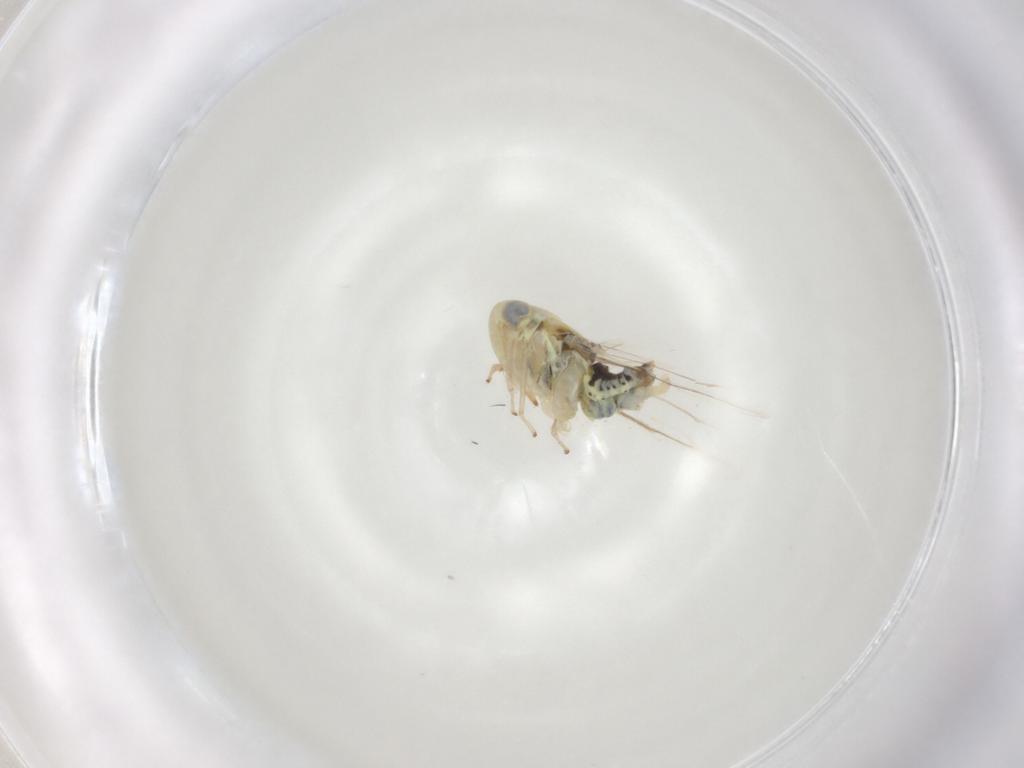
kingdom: Animalia
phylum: Arthropoda
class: Insecta
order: Hemiptera
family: Cicadellidae
